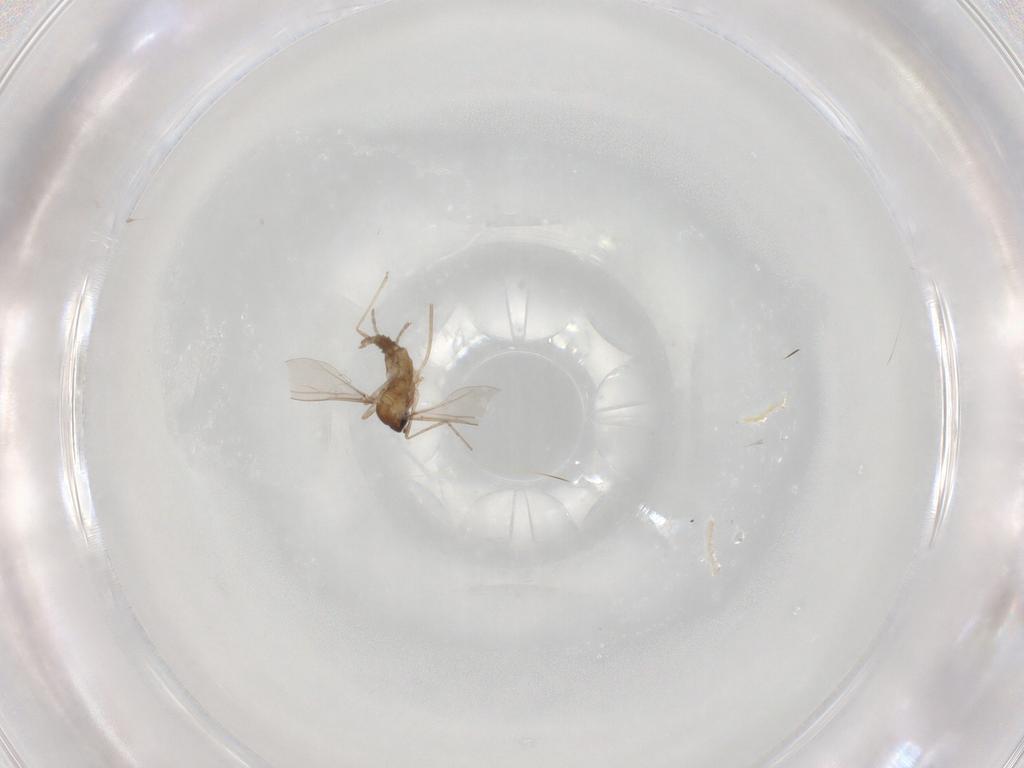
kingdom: Animalia
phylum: Arthropoda
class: Insecta
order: Diptera
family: Cecidomyiidae
